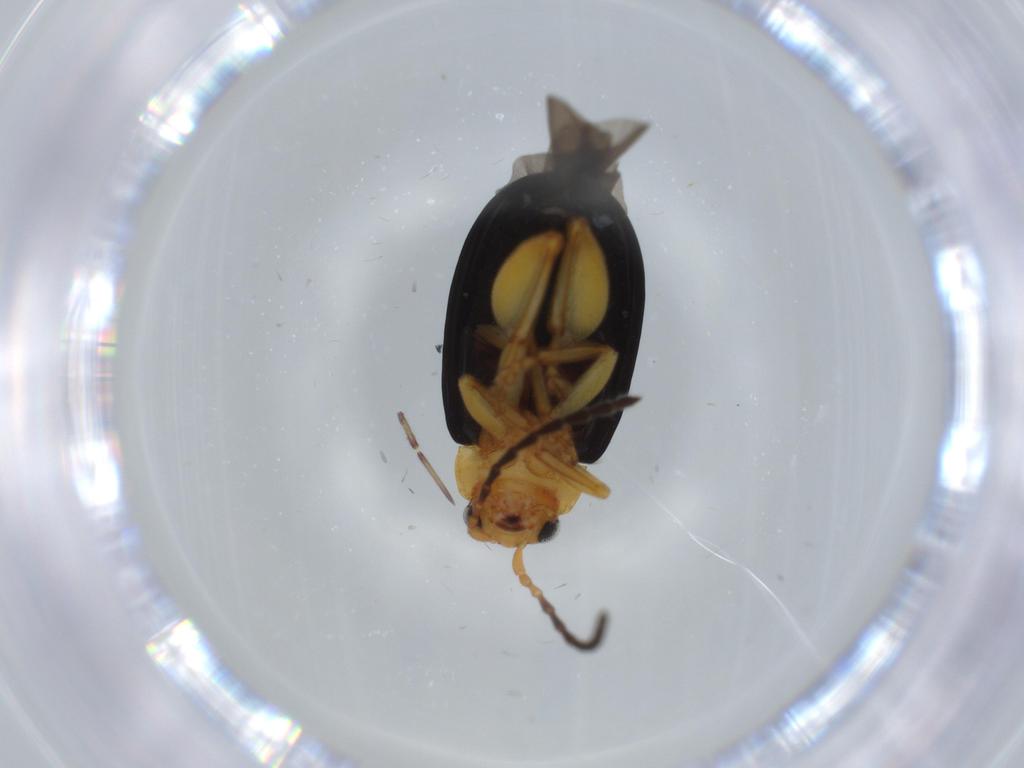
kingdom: Animalia
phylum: Arthropoda
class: Insecta
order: Coleoptera
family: Chrysomelidae
